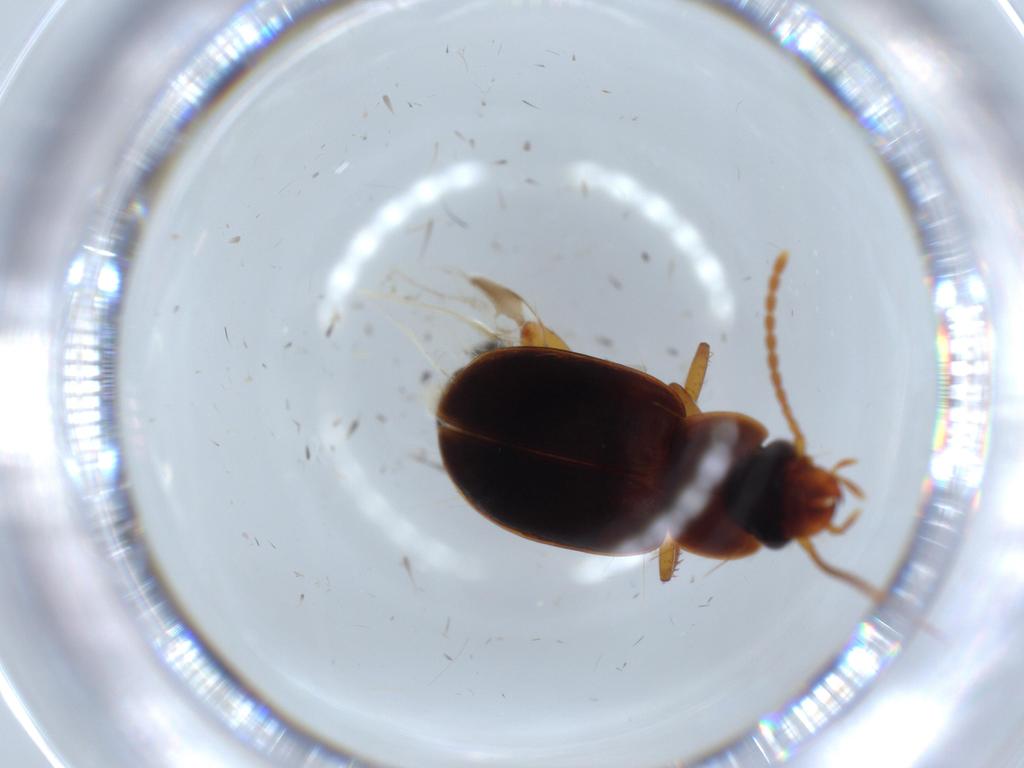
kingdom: Animalia
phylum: Arthropoda
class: Insecta
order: Coleoptera
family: Carabidae
